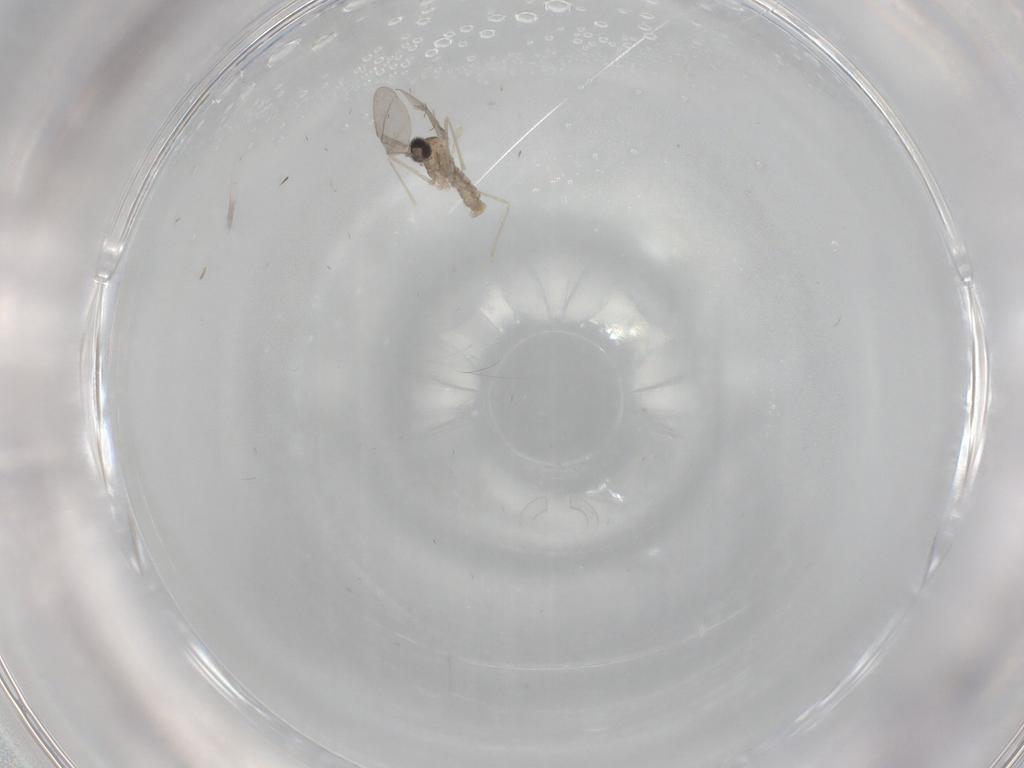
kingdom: Animalia
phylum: Arthropoda
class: Insecta
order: Diptera
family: Cecidomyiidae
